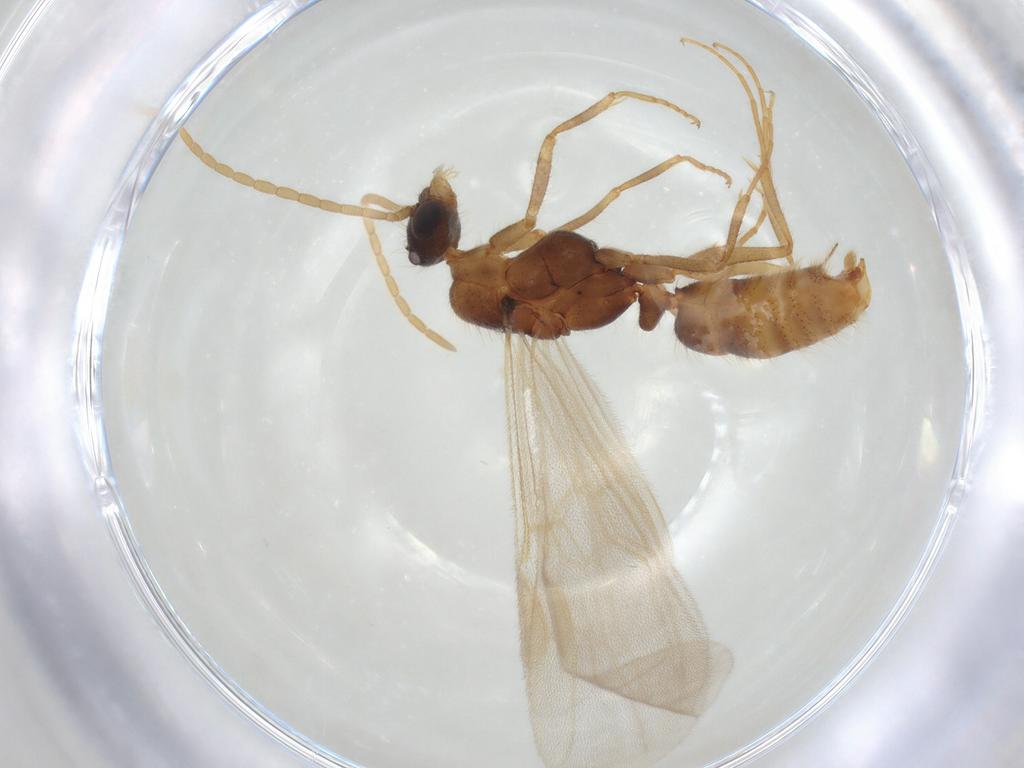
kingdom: Animalia
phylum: Arthropoda
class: Insecta
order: Hymenoptera
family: Formicidae
